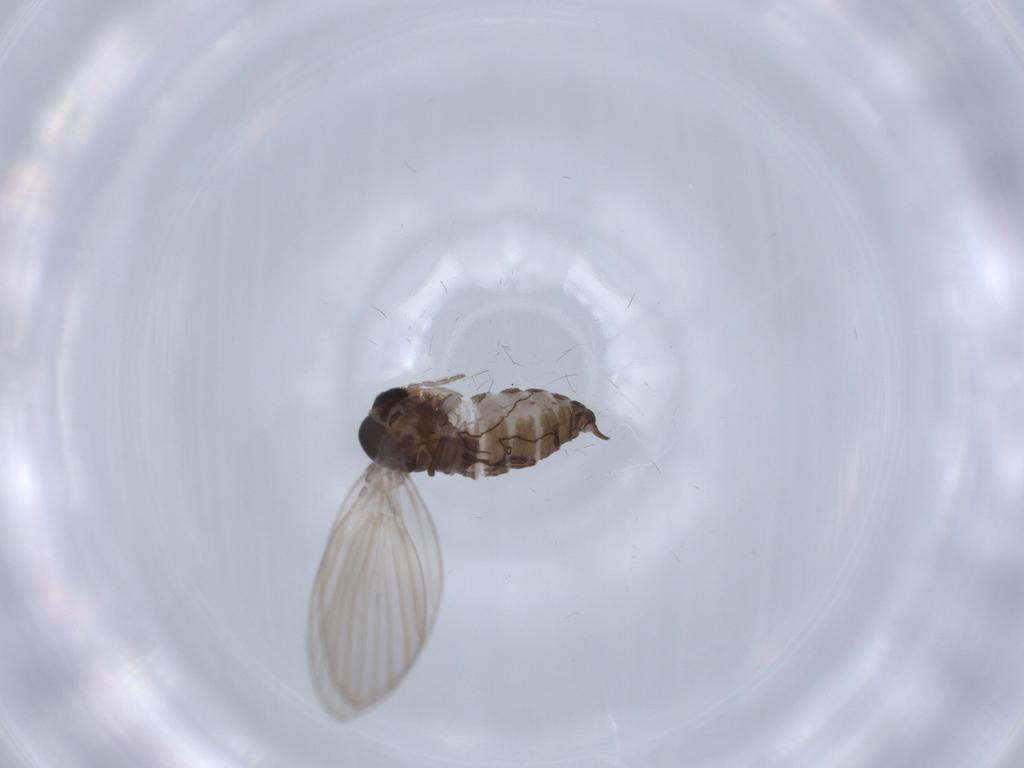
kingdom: Animalia
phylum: Arthropoda
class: Insecta
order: Diptera
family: Psychodidae
